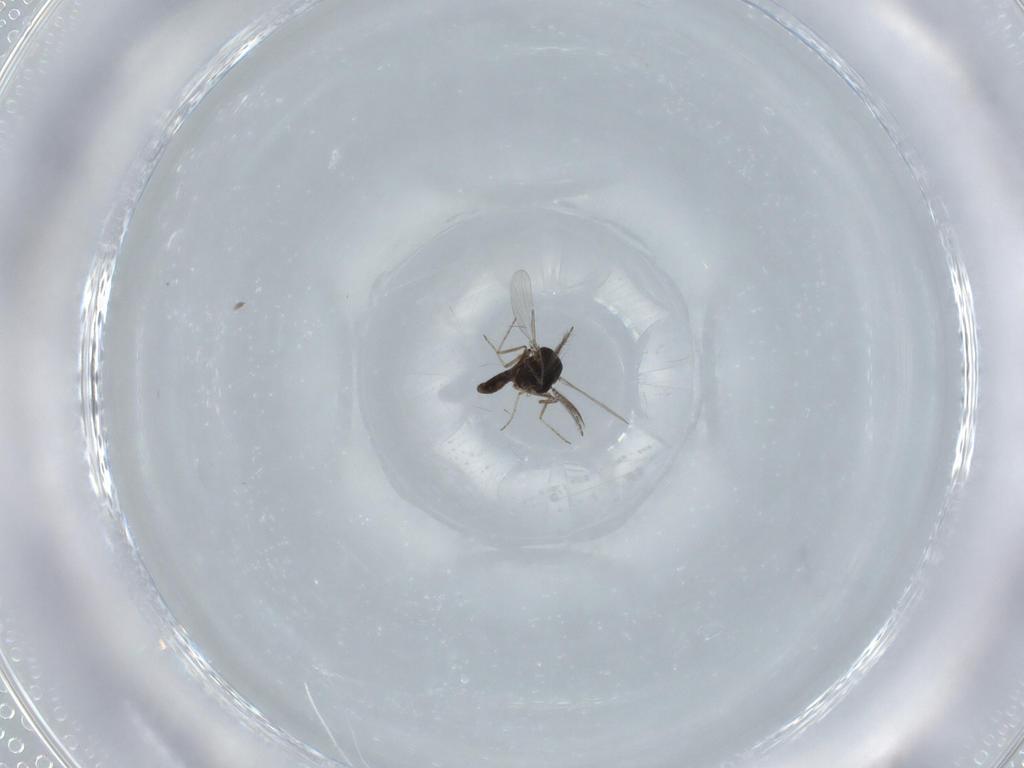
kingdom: Animalia
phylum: Arthropoda
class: Insecta
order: Diptera
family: Ceratopogonidae
